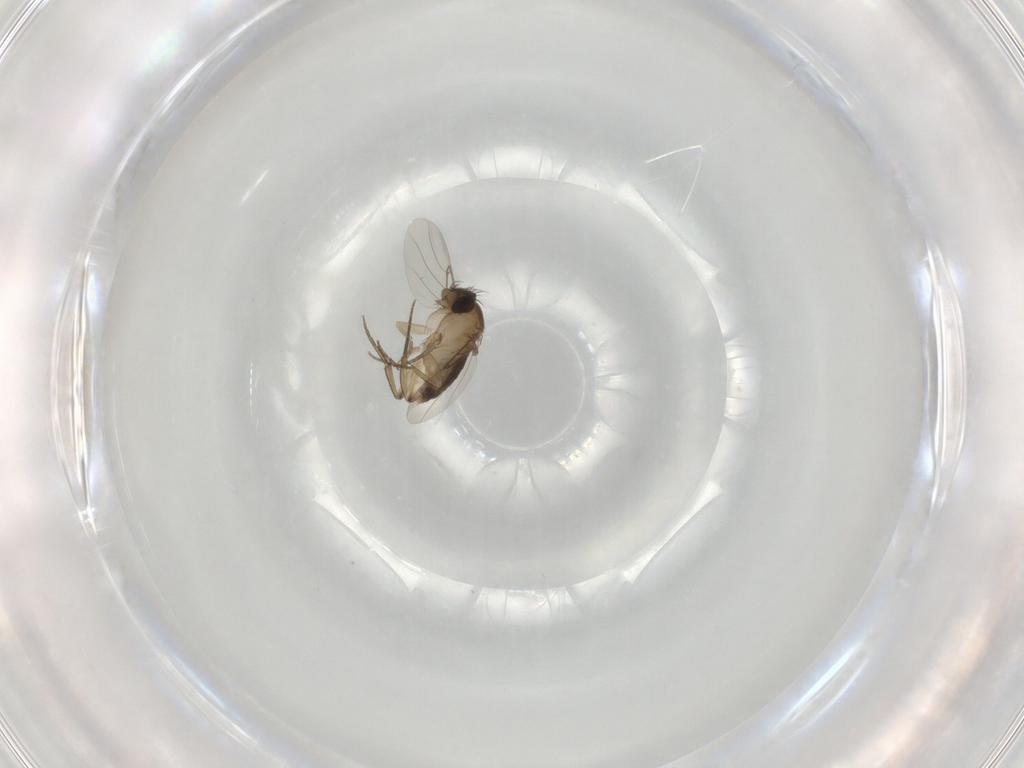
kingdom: Animalia
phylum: Arthropoda
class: Insecta
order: Diptera
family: Phoridae
